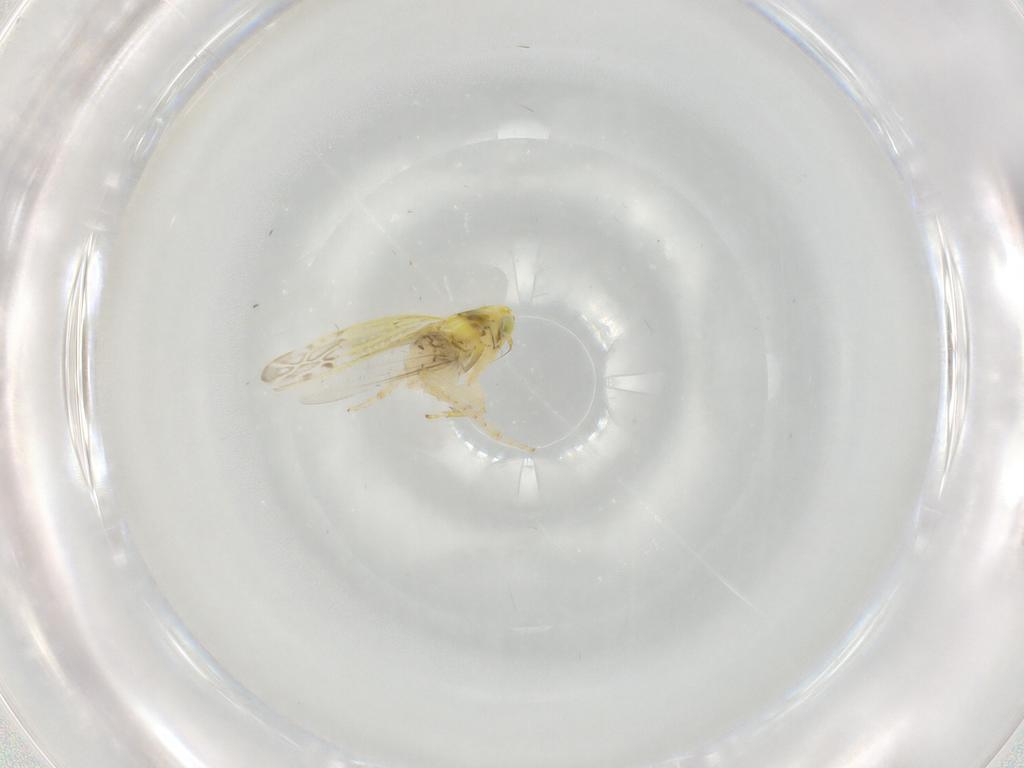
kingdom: Animalia
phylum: Arthropoda
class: Insecta
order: Hemiptera
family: Cicadellidae
